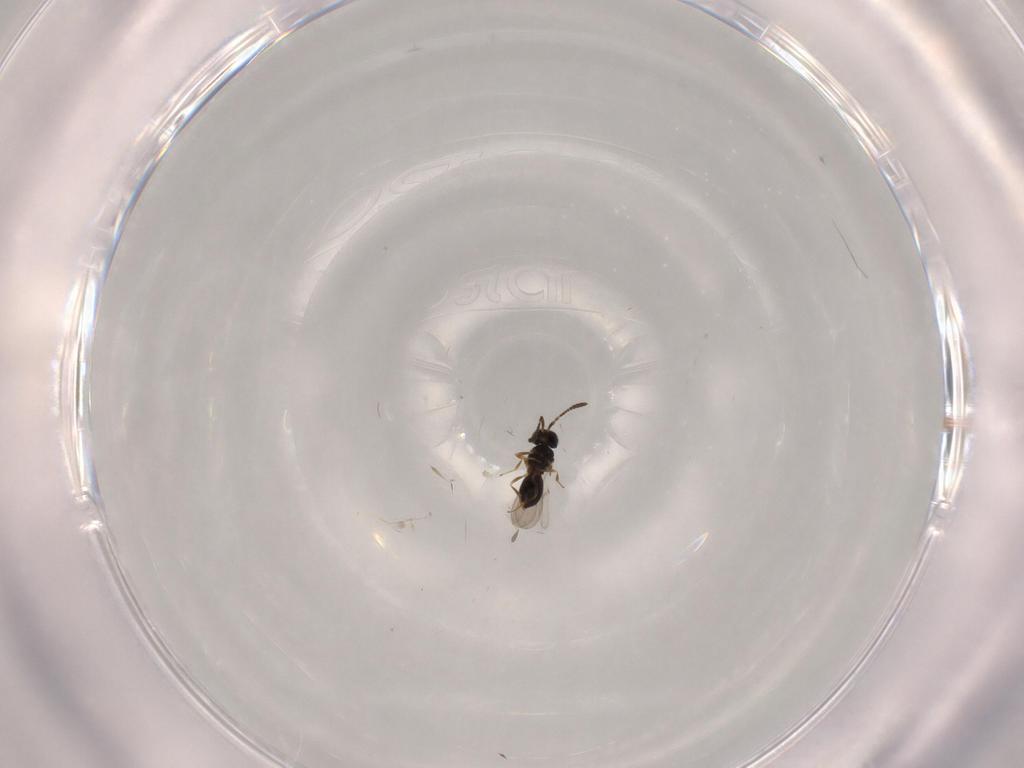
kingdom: Animalia
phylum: Arthropoda
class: Insecta
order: Hymenoptera
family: Scelionidae
